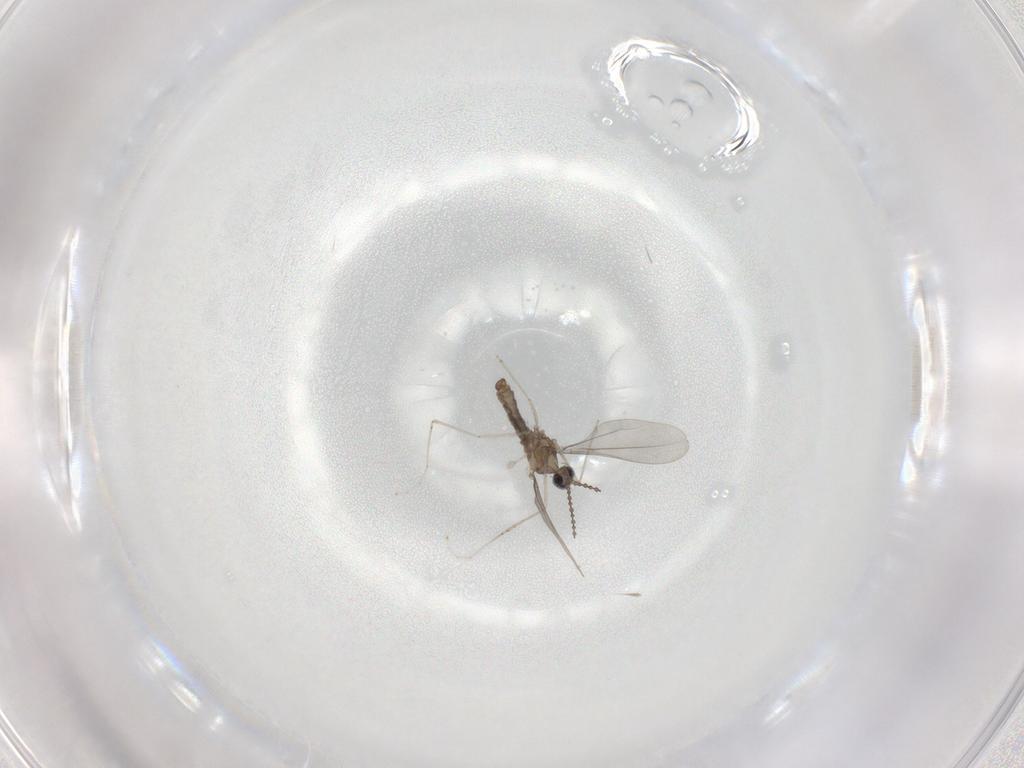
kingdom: Animalia
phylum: Arthropoda
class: Insecta
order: Diptera
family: Cecidomyiidae
